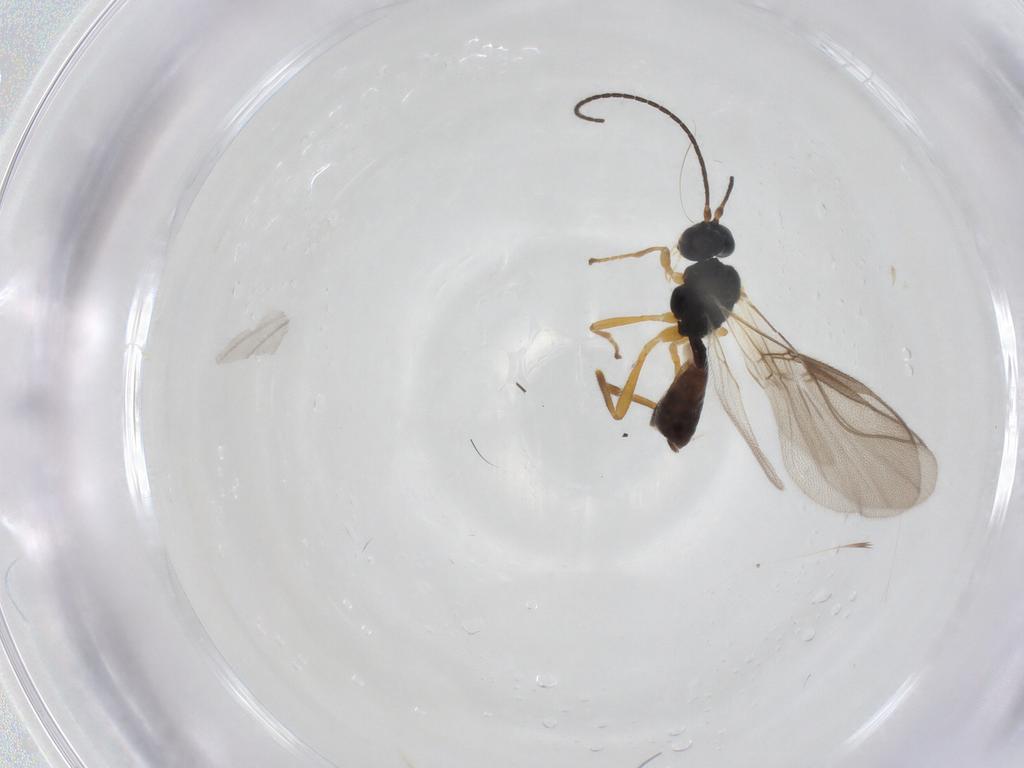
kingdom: Animalia
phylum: Arthropoda
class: Insecta
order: Hymenoptera
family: Braconidae
